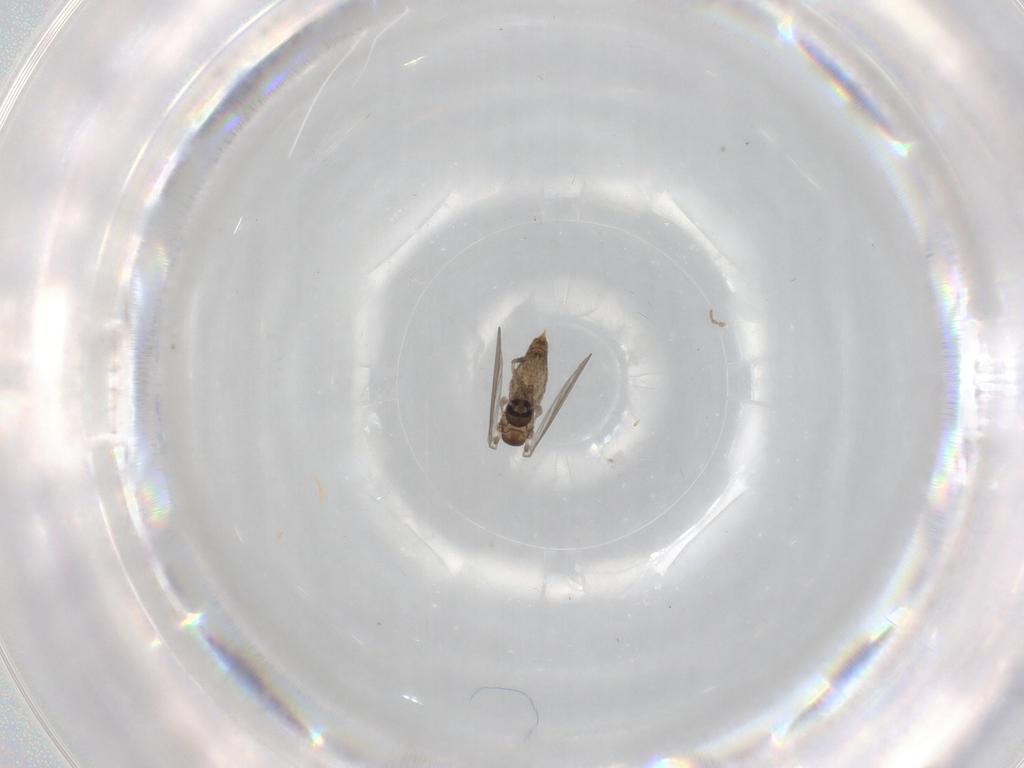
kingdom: Animalia
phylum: Arthropoda
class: Insecta
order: Diptera
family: Psychodidae
